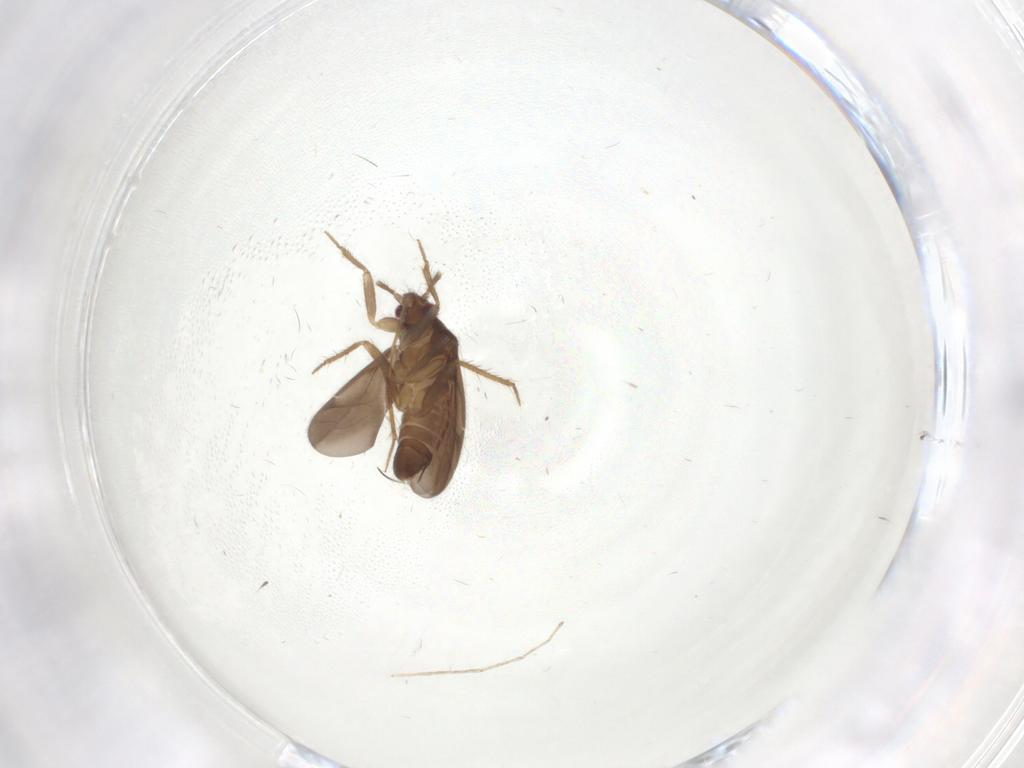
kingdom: Animalia
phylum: Arthropoda
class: Insecta
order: Hemiptera
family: Ceratocombidae
